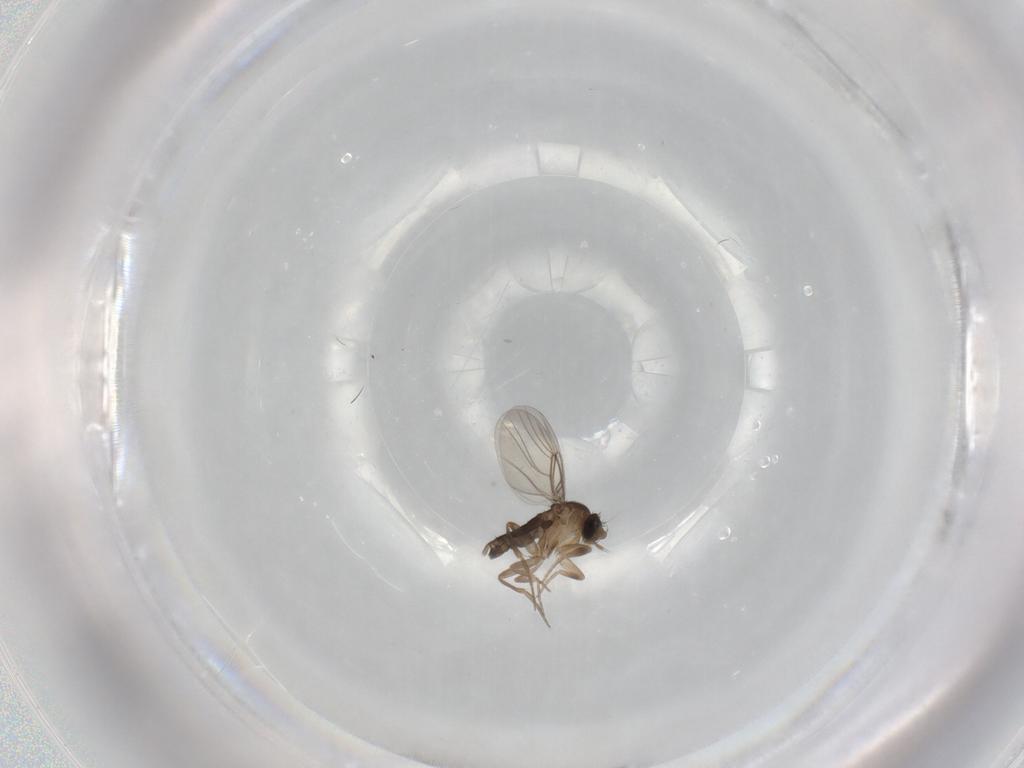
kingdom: Animalia
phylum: Arthropoda
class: Insecta
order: Diptera
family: Phoridae
